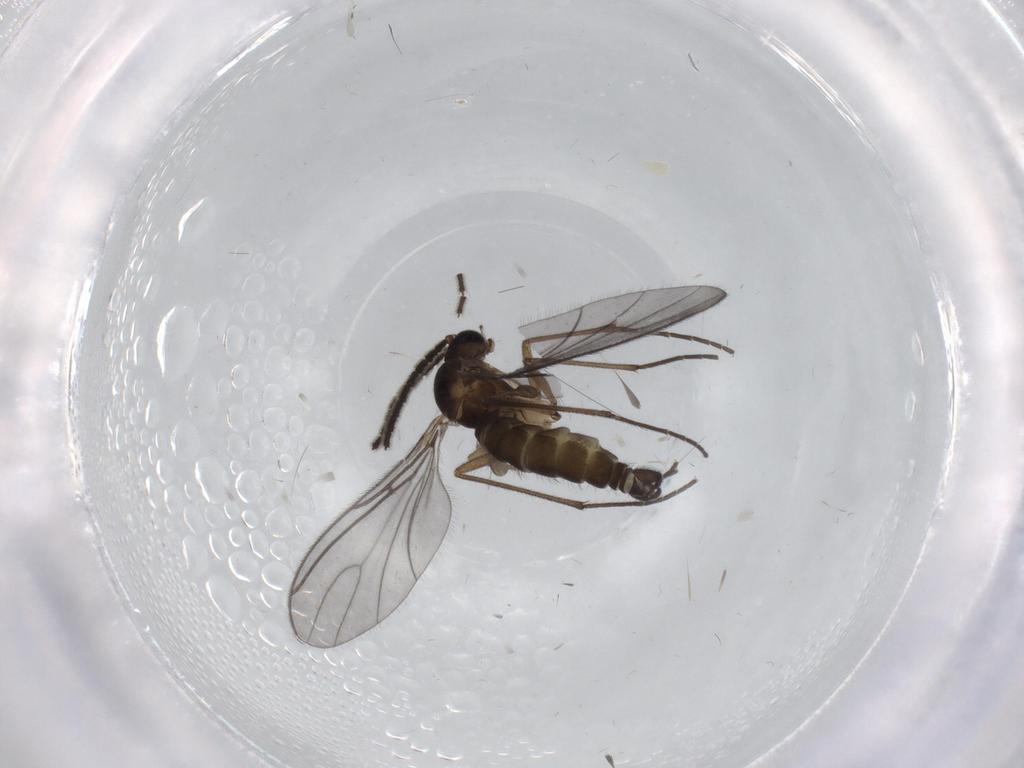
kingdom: Animalia
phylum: Arthropoda
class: Insecta
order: Diptera
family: Sciaridae
